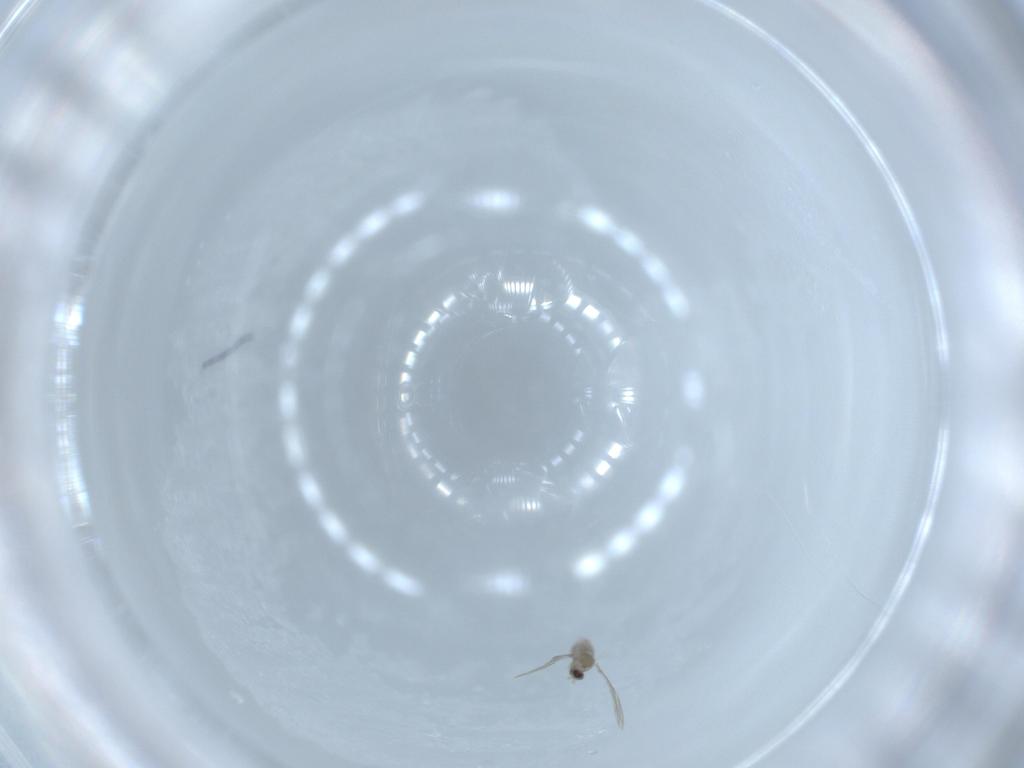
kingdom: Animalia
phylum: Arthropoda
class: Insecta
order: Diptera
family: Cecidomyiidae
